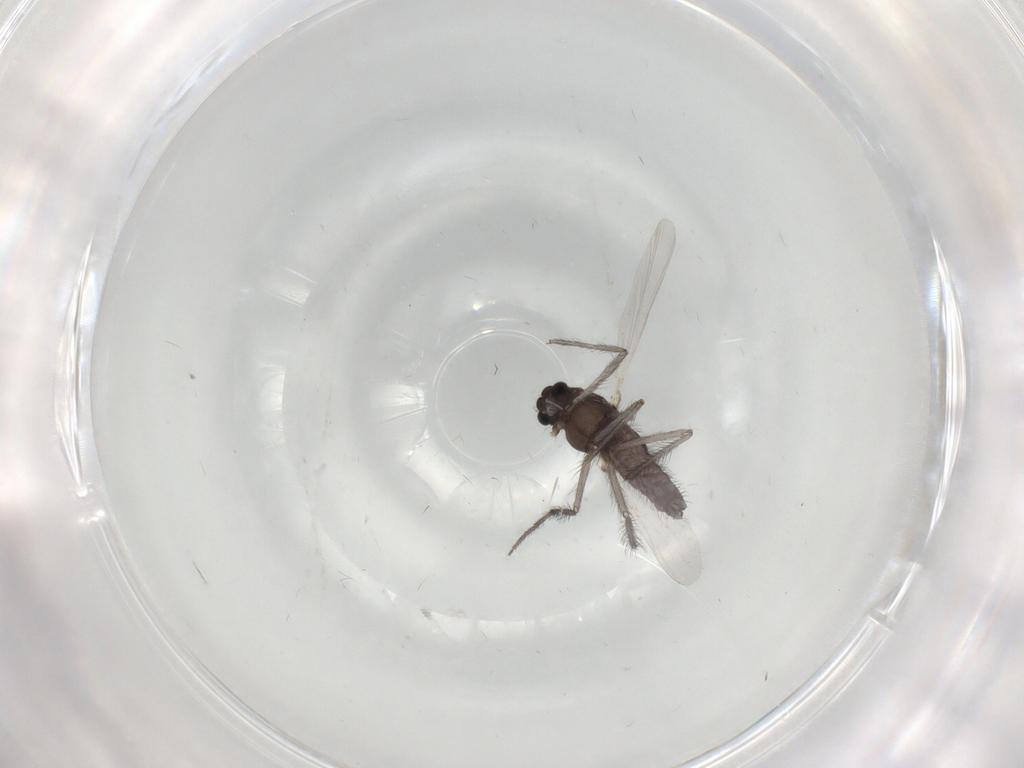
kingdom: Animalia
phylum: Arthropoda
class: Insecta
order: Diptera
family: Chironomidae
